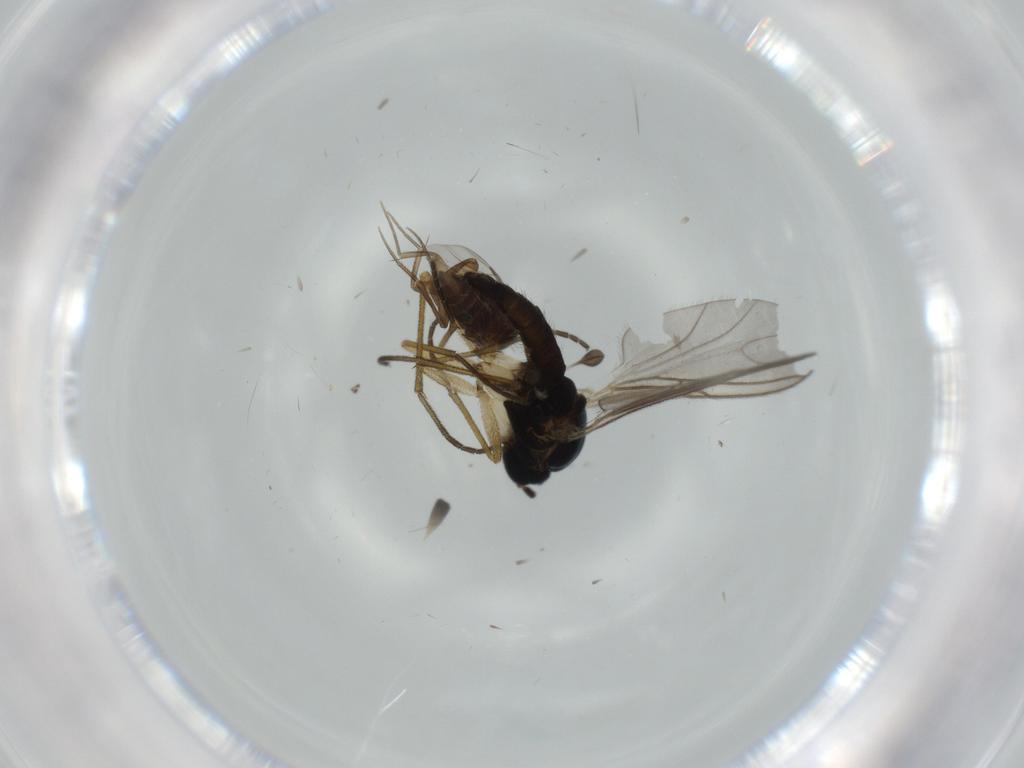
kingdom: Animalia
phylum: Arthropoda
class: Insecta
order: Diptera
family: Cecidomyiidae
